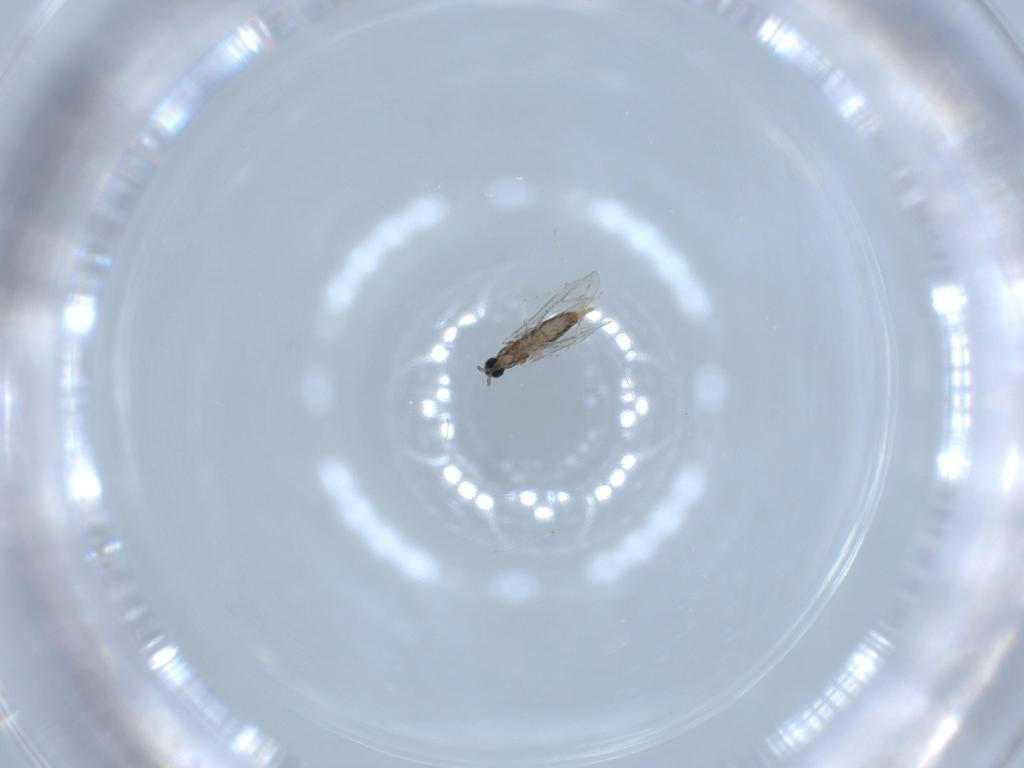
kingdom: Animalia
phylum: Arthropoda
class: Insecta
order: Diptera
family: Cecidomyiidae
